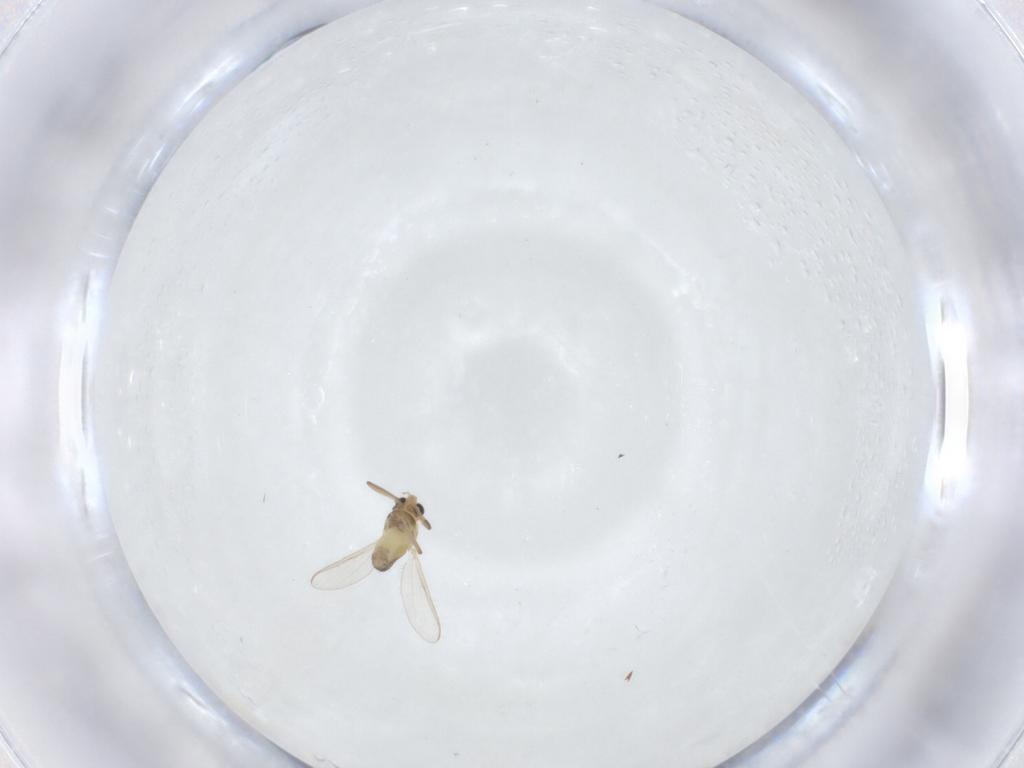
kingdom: Animalia
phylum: Arthropoda
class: Insecta
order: Diptera
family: Chironomidae
